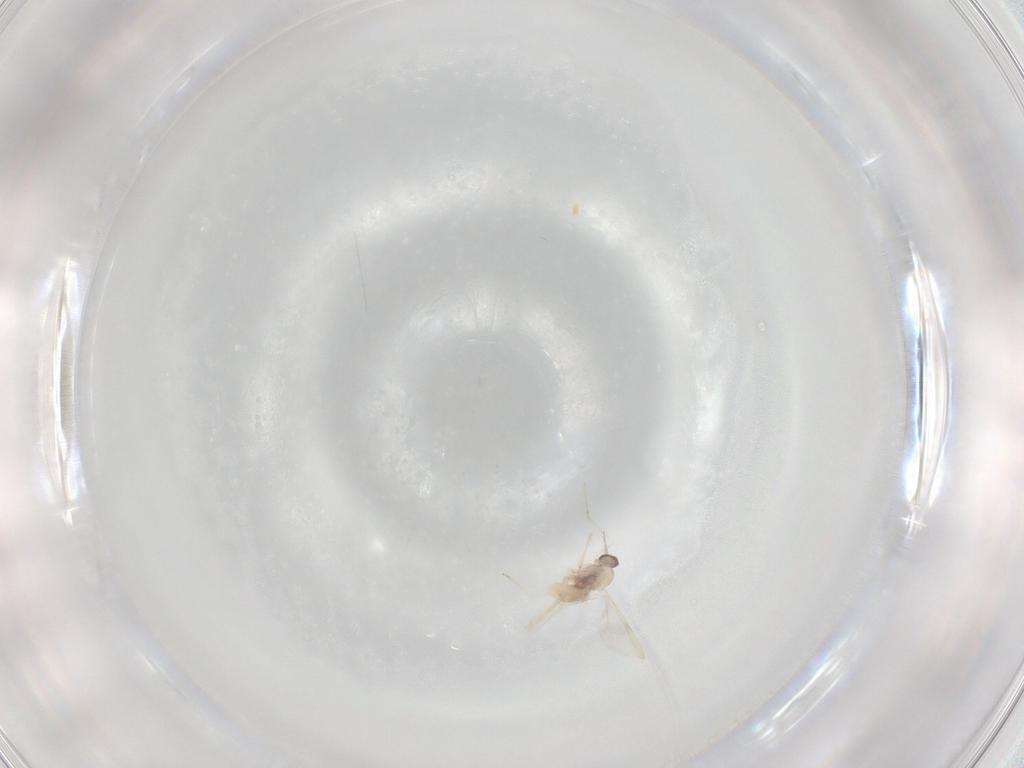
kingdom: Animalia
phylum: Arthropoda
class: Insecta
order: Diptera
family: Cecidomyiidae
